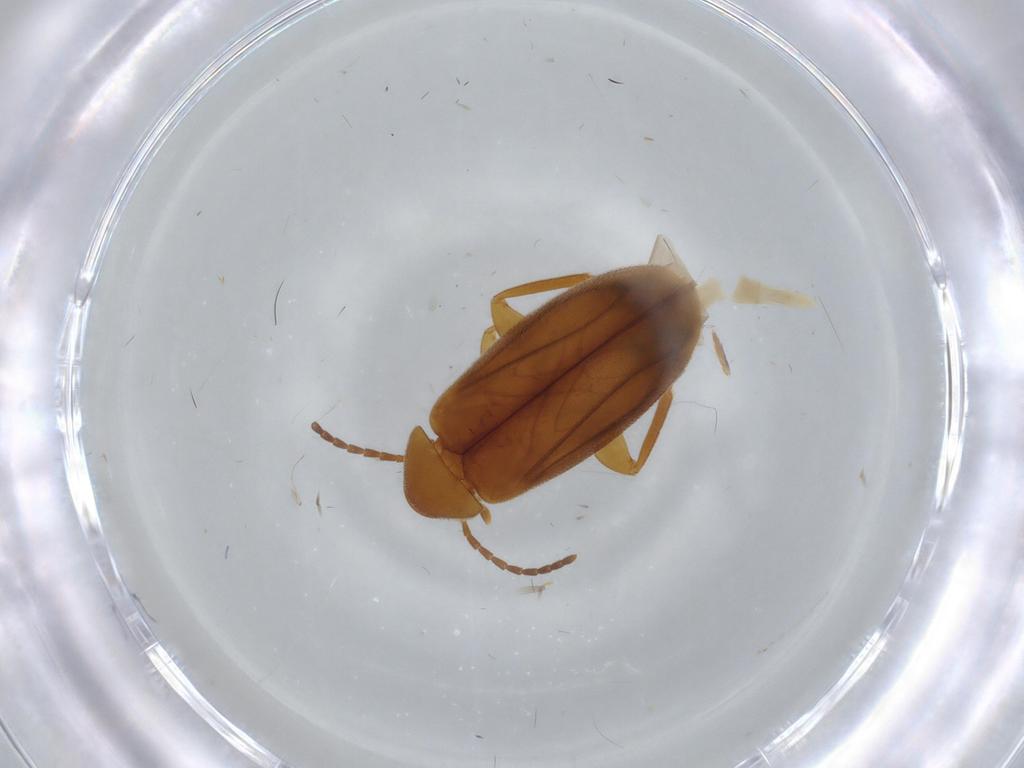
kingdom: Animalia
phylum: Arthropoda
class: Insecta
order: Coleoptera
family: Scraptiidae
